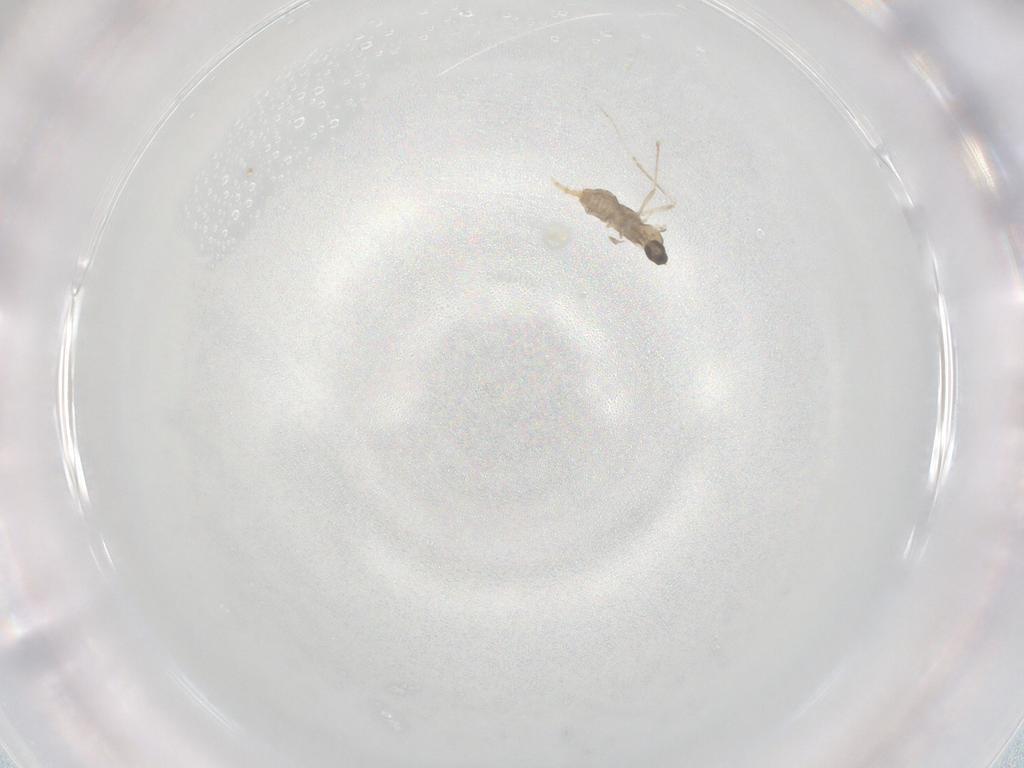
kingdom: Animalia
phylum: Arthropoda
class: Insecta
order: Diptera
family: Cecidomyiidae
